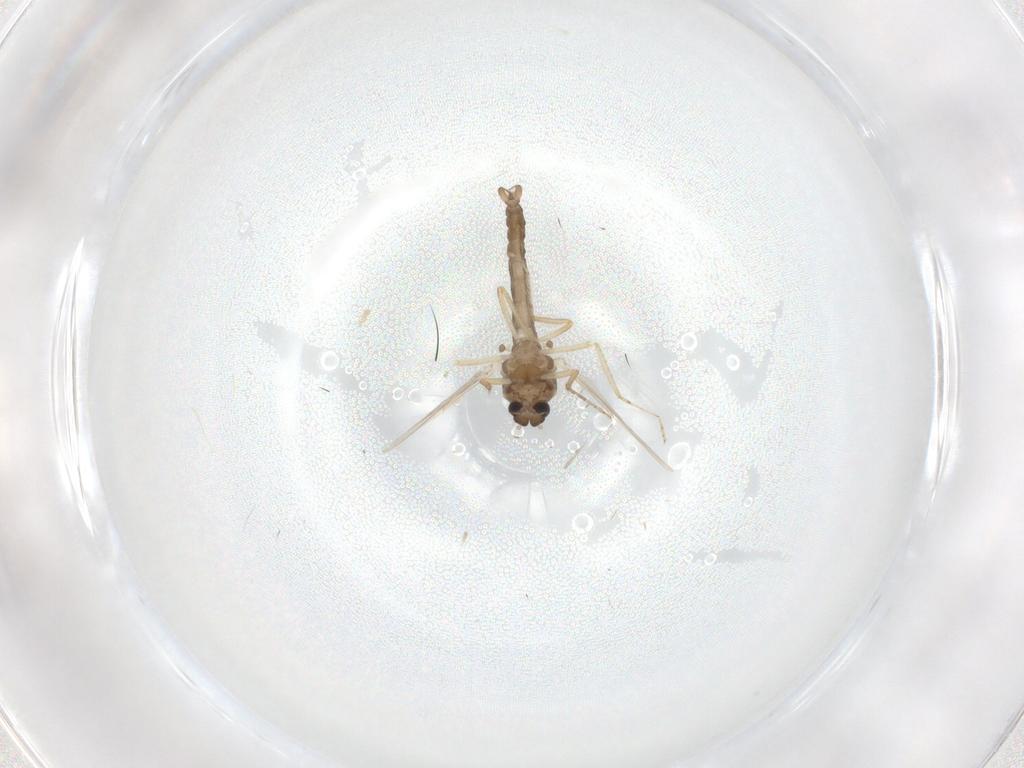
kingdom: Animalia
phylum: Arthropoda
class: Insecta
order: Diptera
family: Ceratopogonidae
